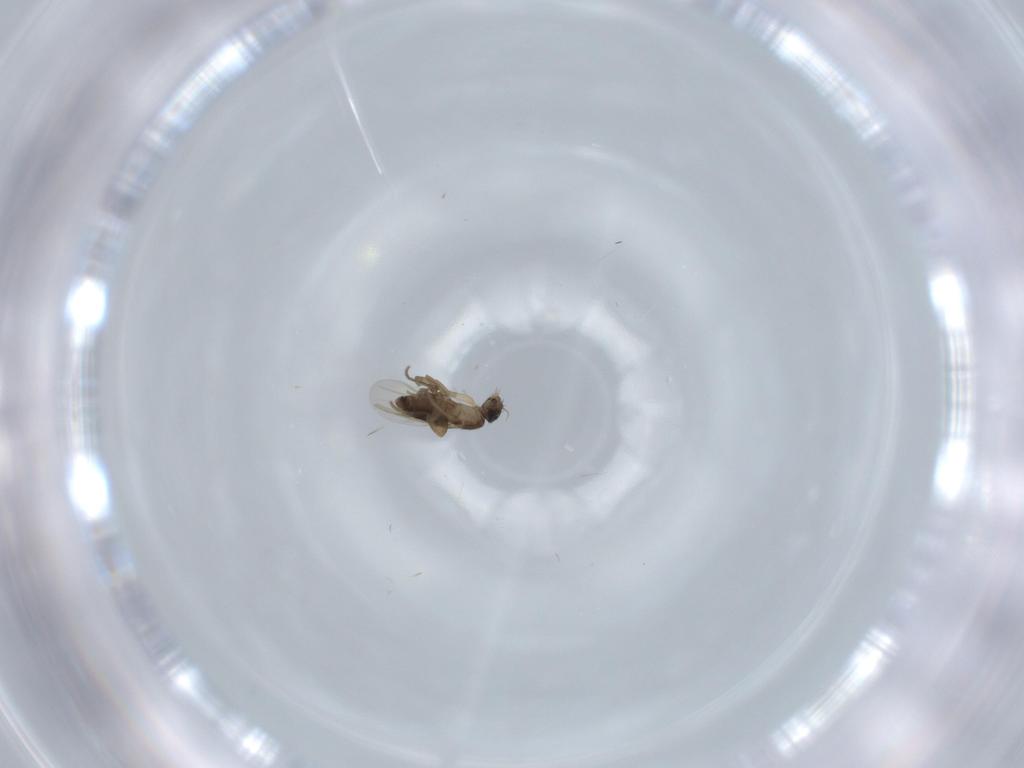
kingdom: Animalia
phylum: Arthropoda
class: Insecta
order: Diptera
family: Phoridae
